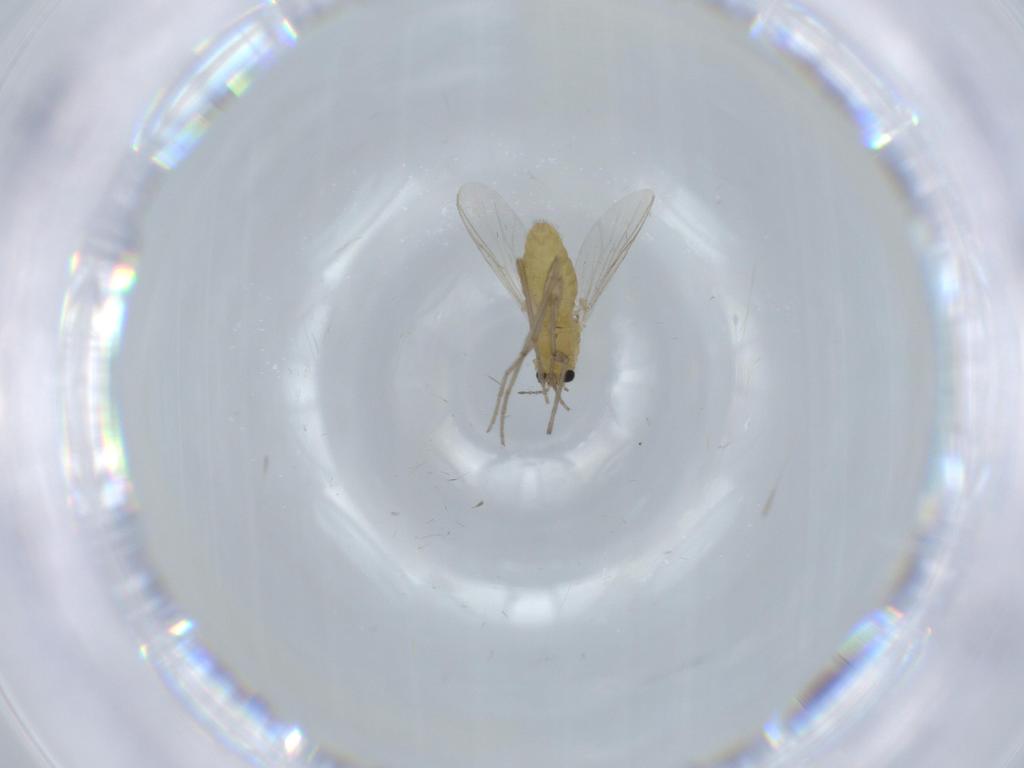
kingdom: Animalia
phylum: Arthropoda
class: Insecta
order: Diptera
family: Chironomidae
